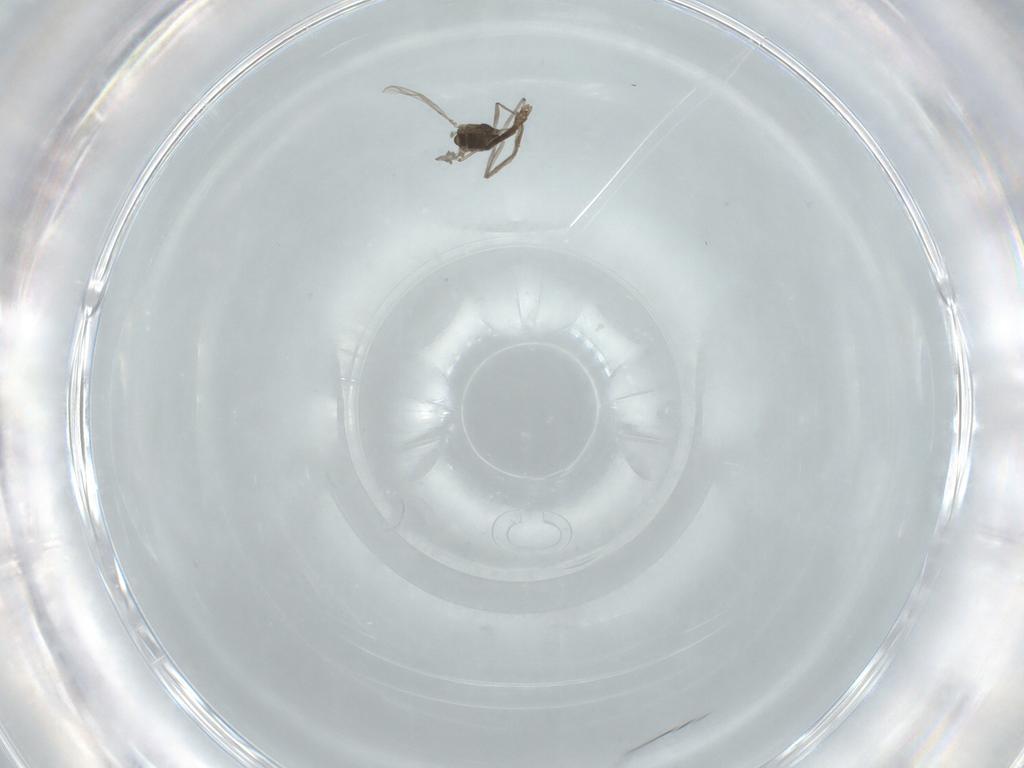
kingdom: Animalia
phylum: Arthropoda
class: Insecta
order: Diptera
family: Chironomidae
